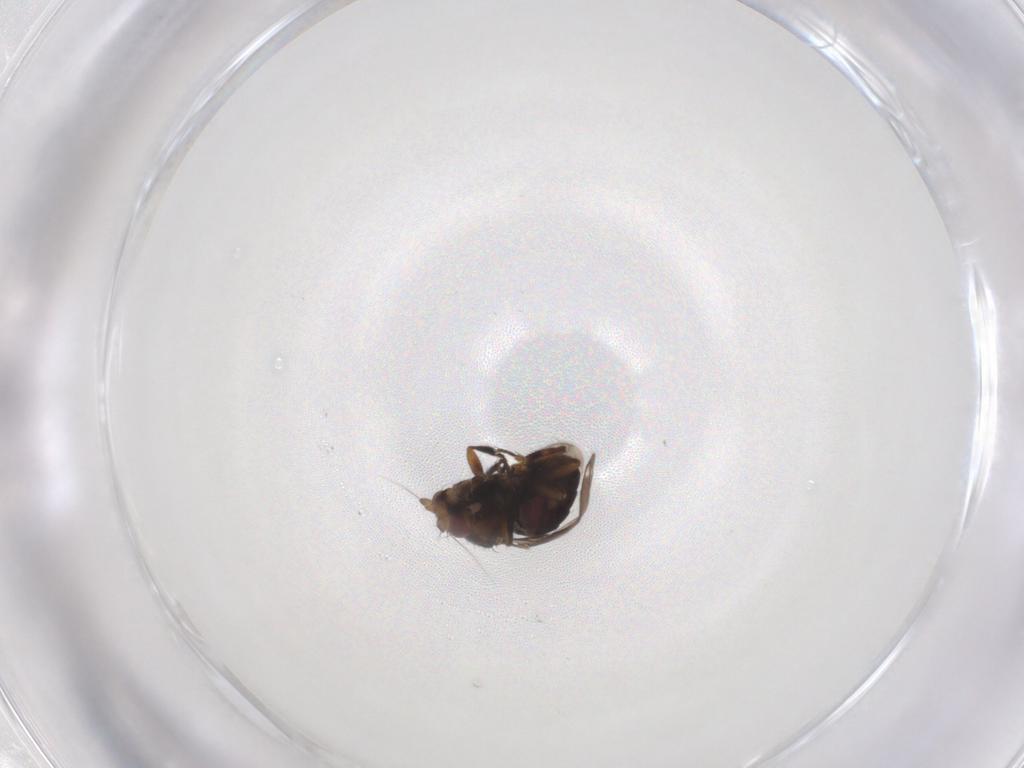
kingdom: Animalia
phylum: Arthropoda
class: Insecta
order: Diptera
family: Sphaeroceridae
